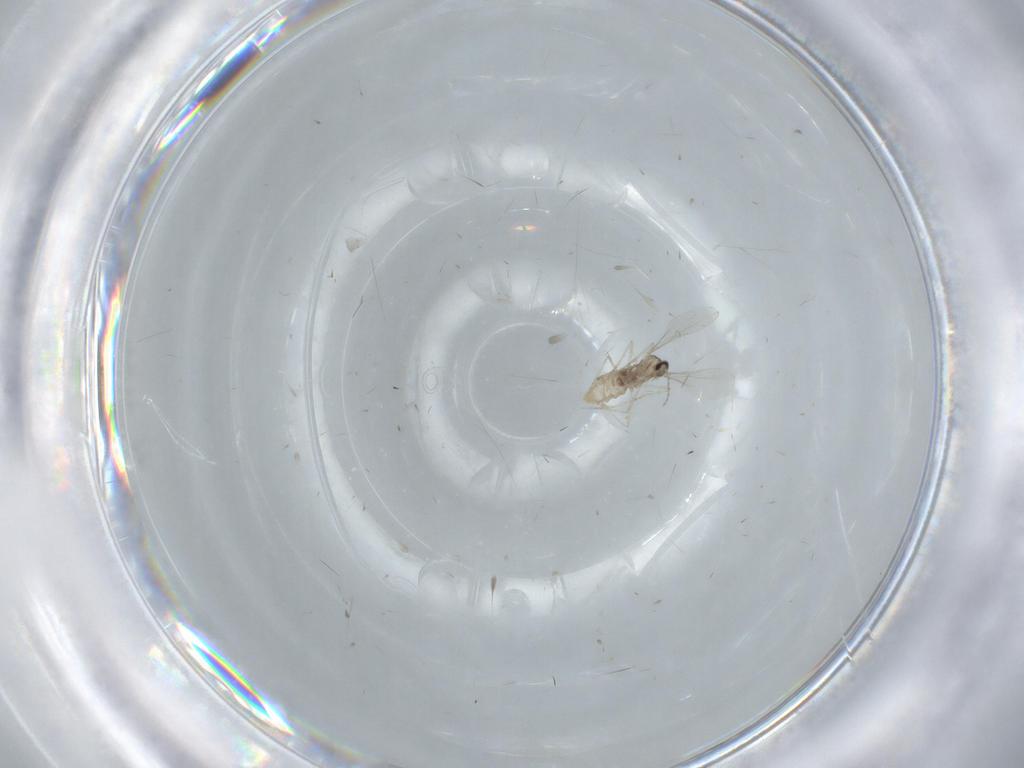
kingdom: Animalia
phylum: Arthropoda
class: Insecta
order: Diptera
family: Cecidomyiidae
